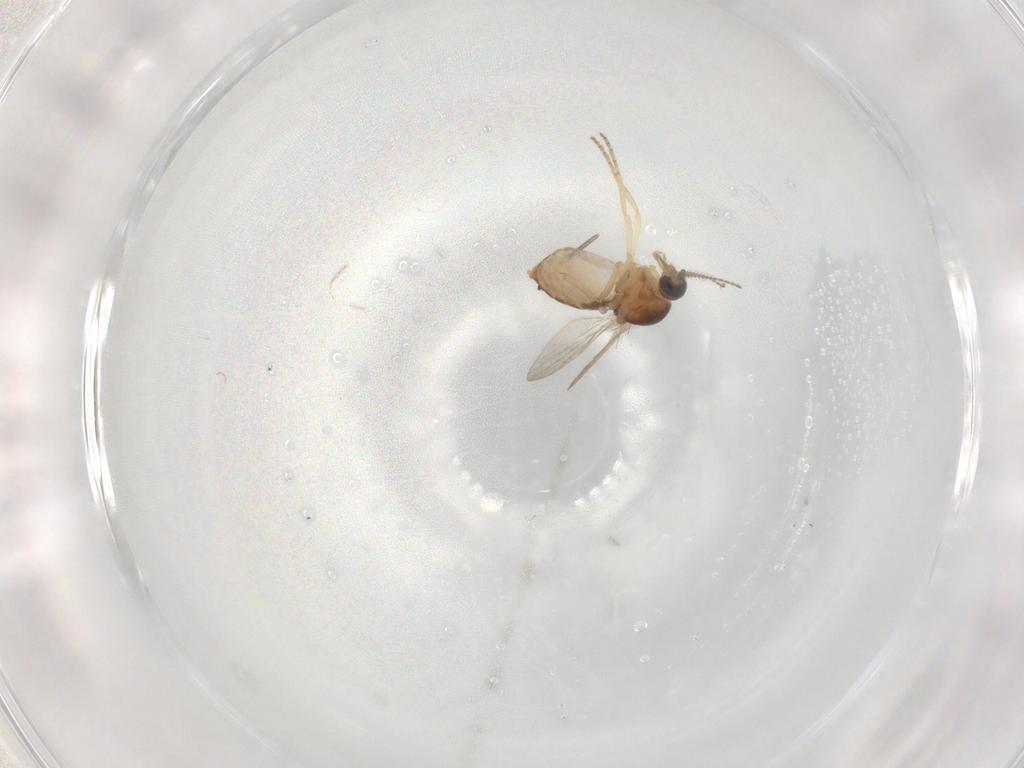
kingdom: Animalia
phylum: Arthropoda
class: Insecta
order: Diptera
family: Ceratopogonidae
